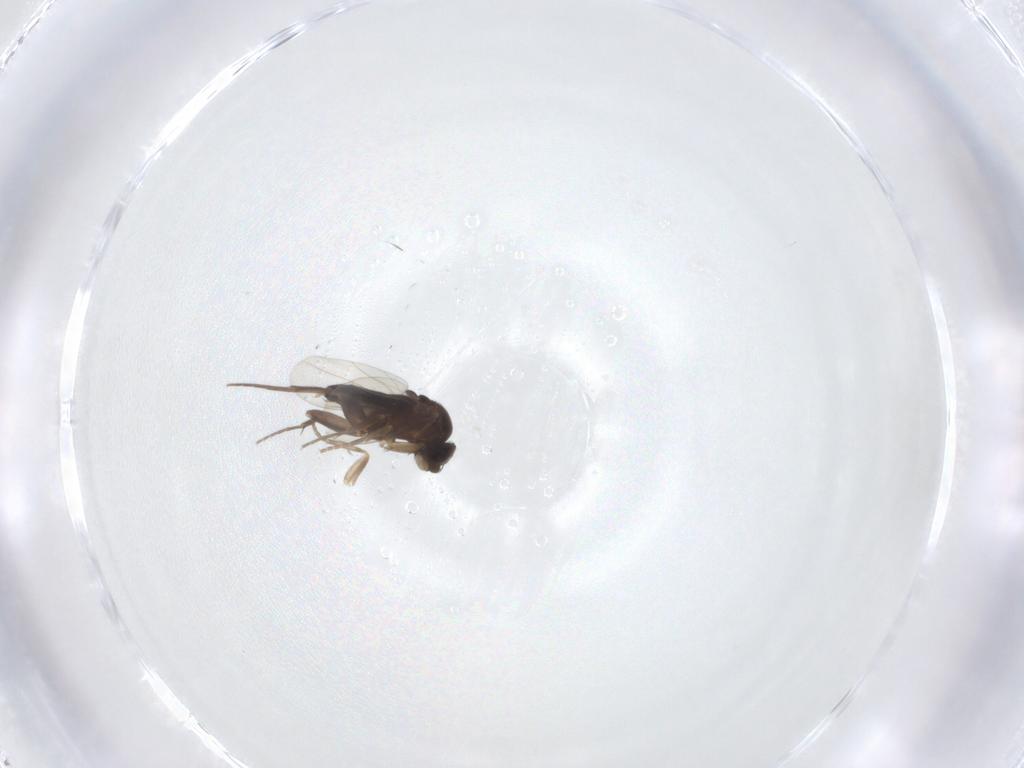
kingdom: Animalia
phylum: Arthropoda
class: Insecta
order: Diptera
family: Phoridae
